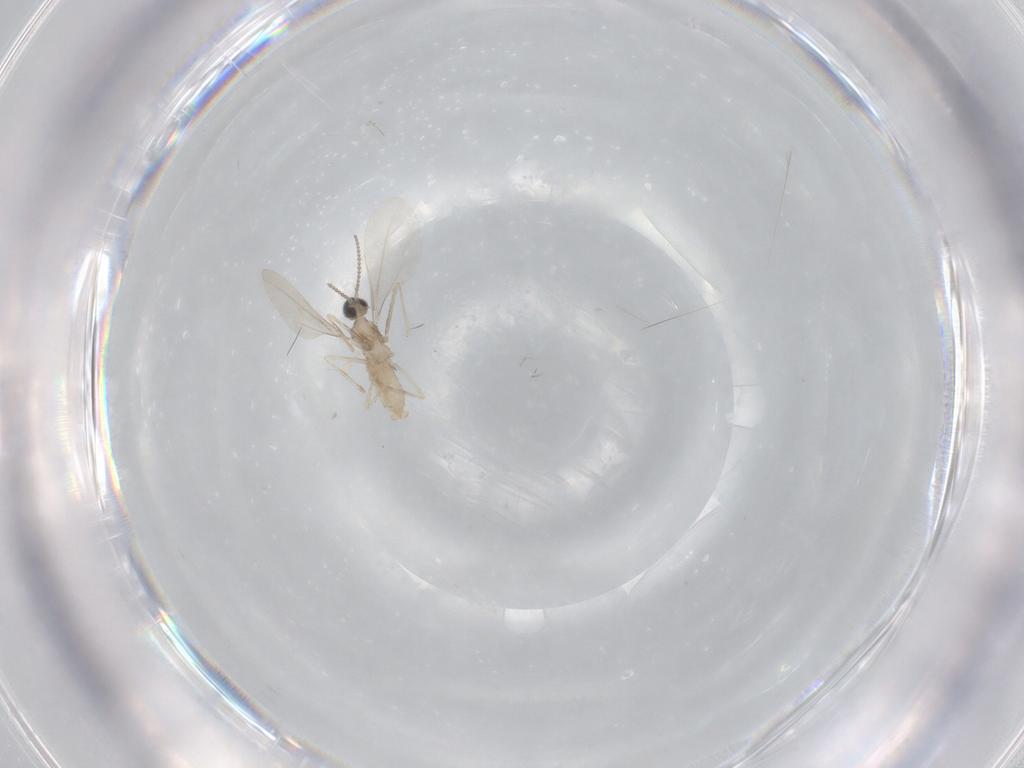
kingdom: Animalia
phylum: Arthropoda
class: Insecta
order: Diptera
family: Cecidomyiidae
